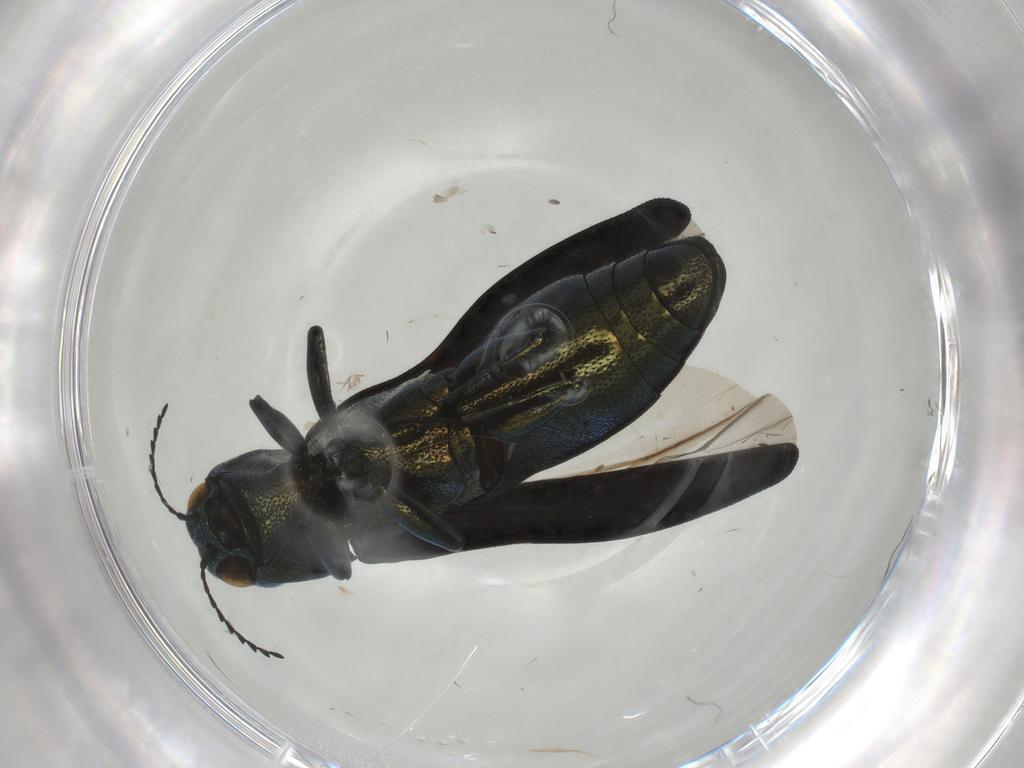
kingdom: Animalia
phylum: Arthropoda
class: Insecta
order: Coleoptera
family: Buprestidae
